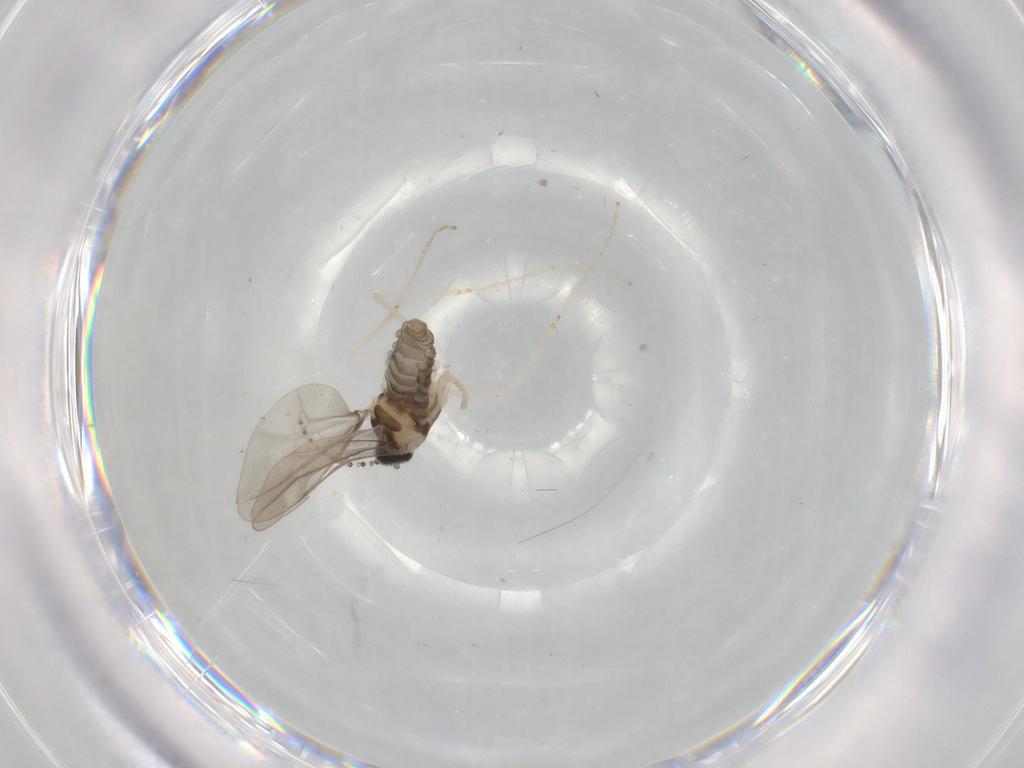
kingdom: Animalia
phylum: Arthropoda
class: Insecta
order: Diptera
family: Cecidomyiidae
